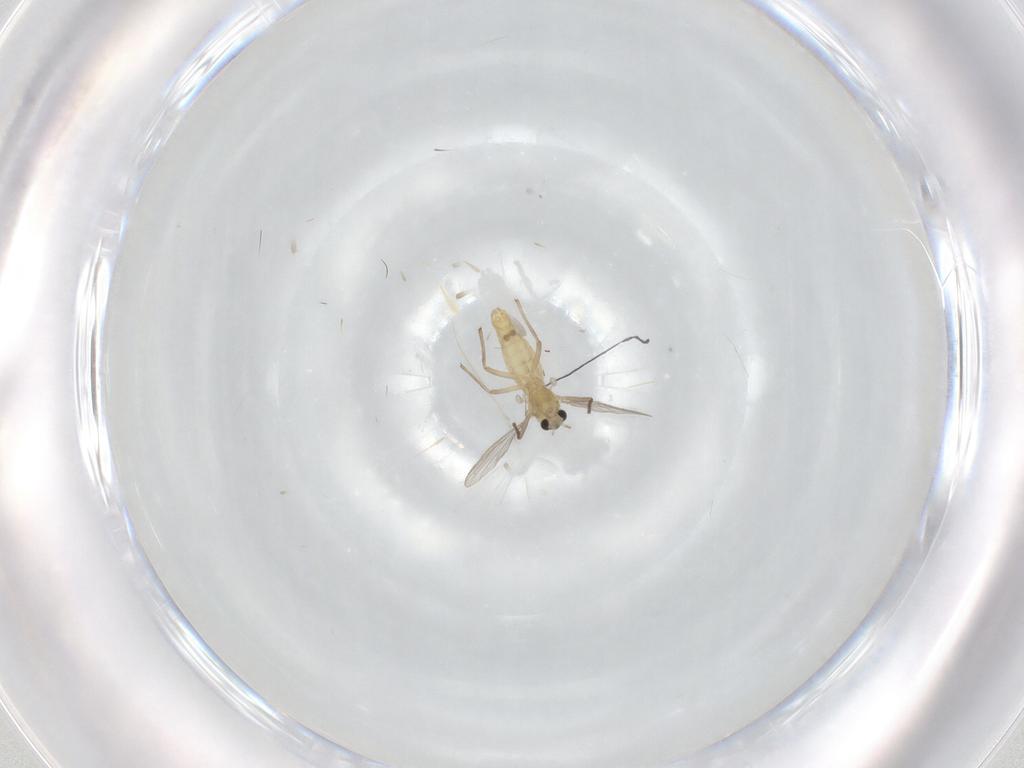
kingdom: Animalia
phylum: Arthropoda
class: Insecta
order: Diptera
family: Chironomidae
